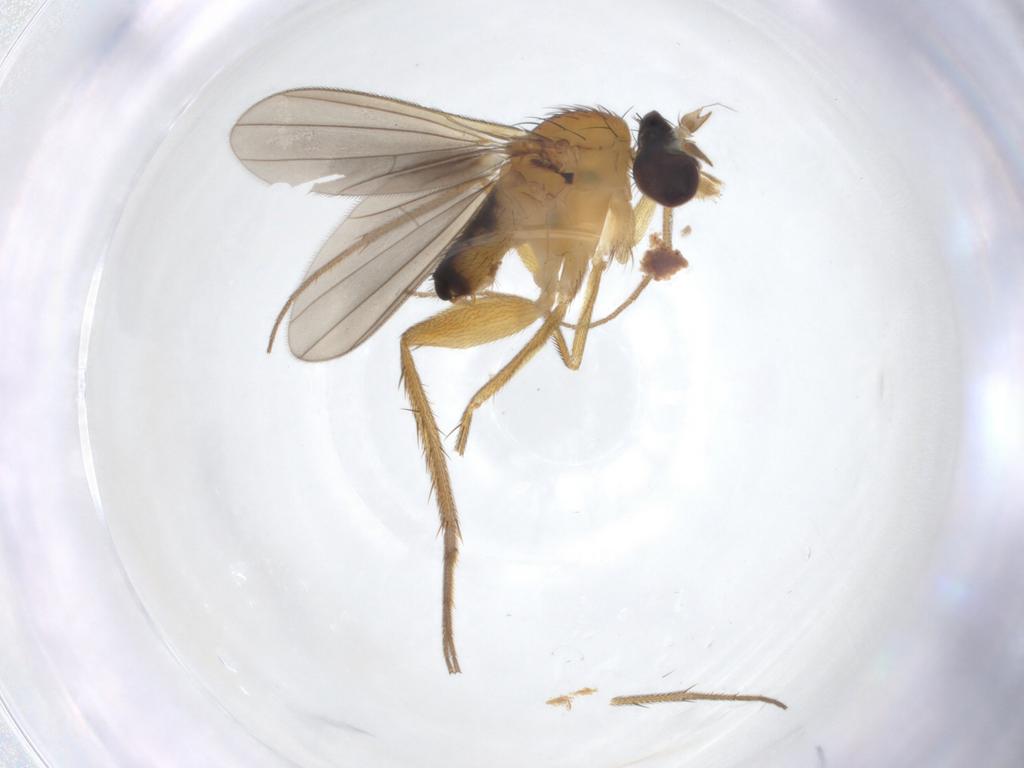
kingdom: Animalia
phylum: Arthropoda
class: Insecta
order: Diptera
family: Dolichopodidae
